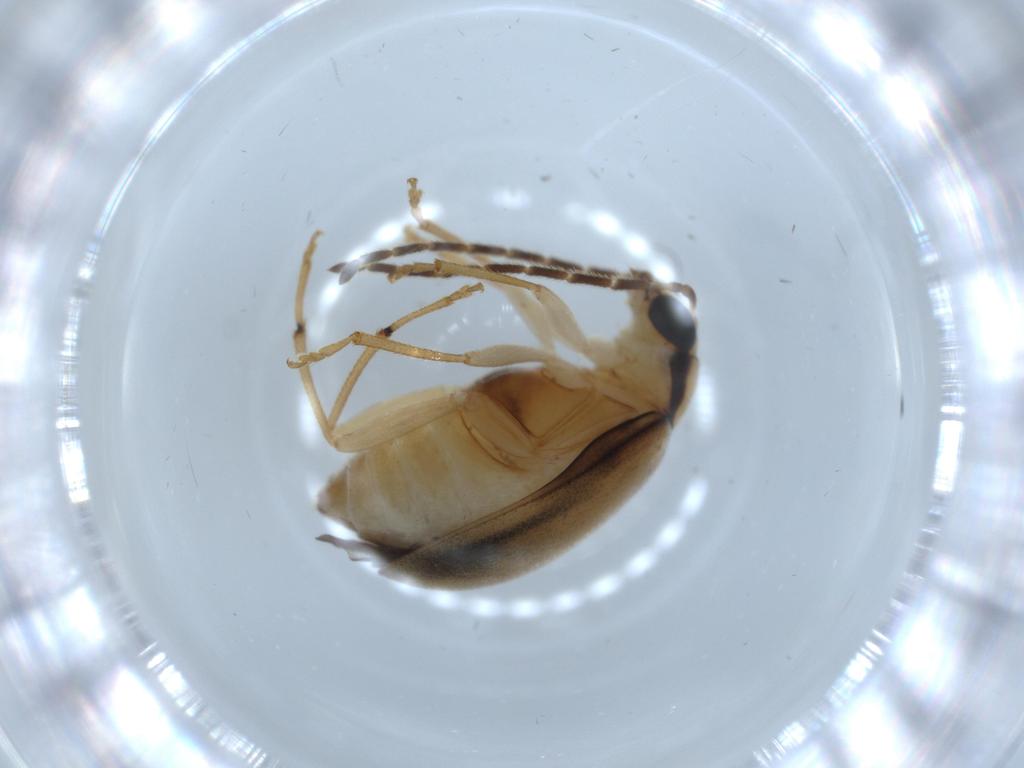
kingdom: Animalia
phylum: Arthropoda
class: Insecta
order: Coleoptera
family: Chrysomelidae
